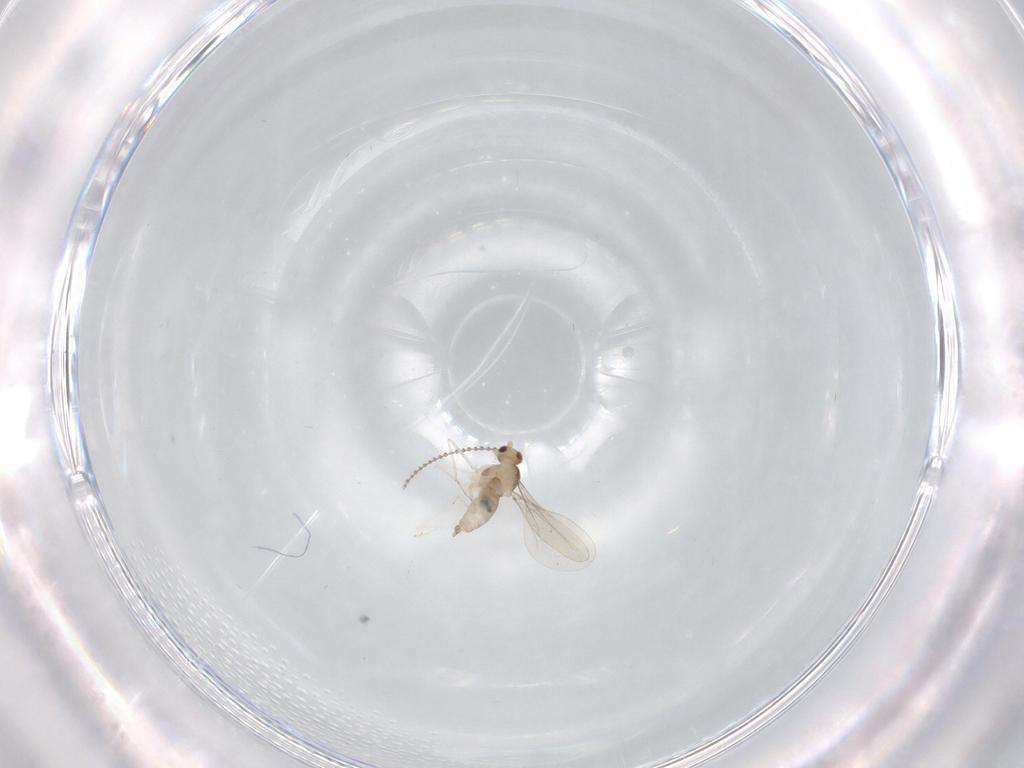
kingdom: Animalia
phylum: Arthropoda
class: Insecta
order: Diptera
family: Cecidomyiidae
